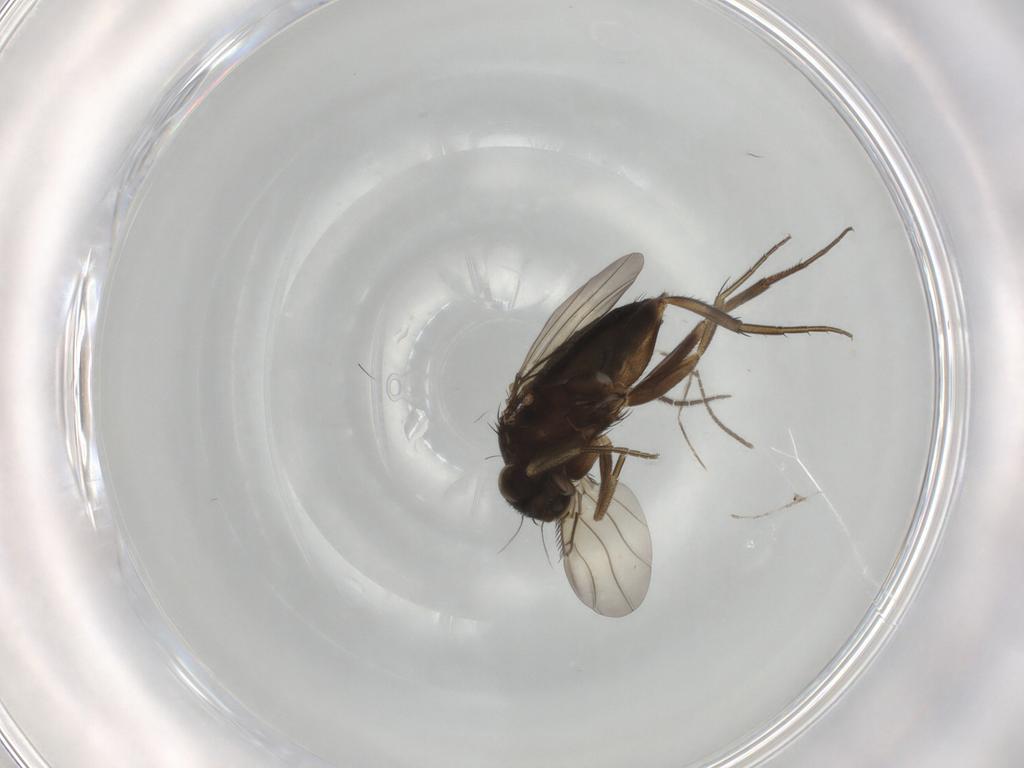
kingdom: Animalia
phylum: Arthropoda
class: Insecta
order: Diptera
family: Phoridae
